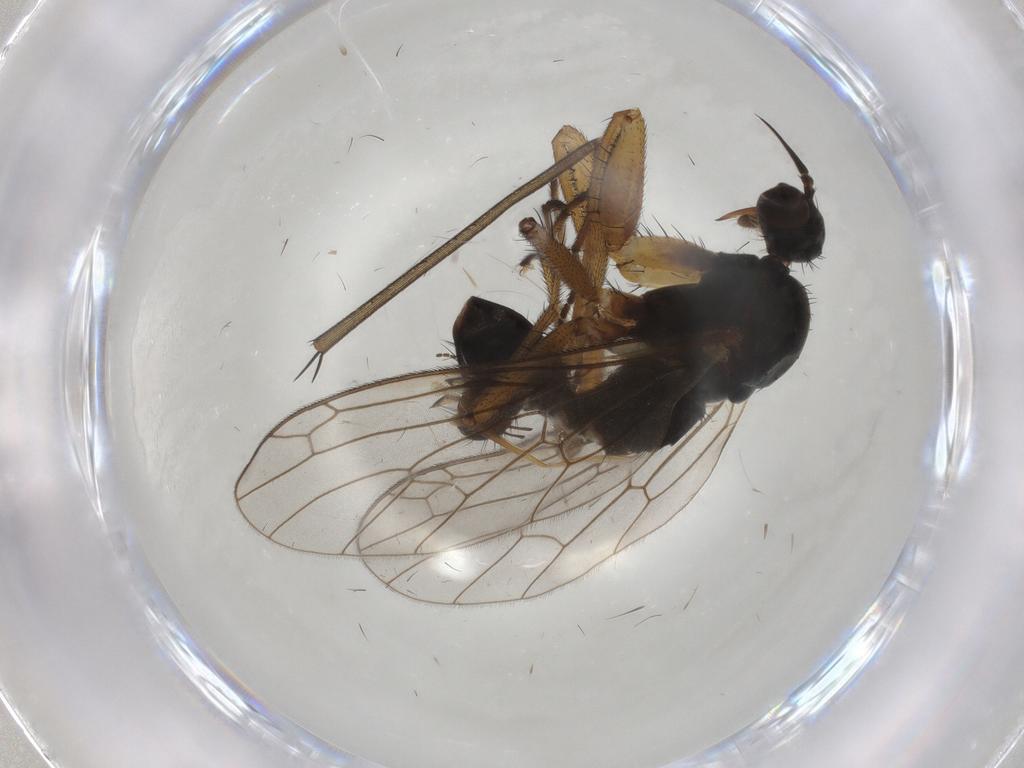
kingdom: Animalia
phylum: Arthropoda
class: Insecta
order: Diptera
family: Empididae
